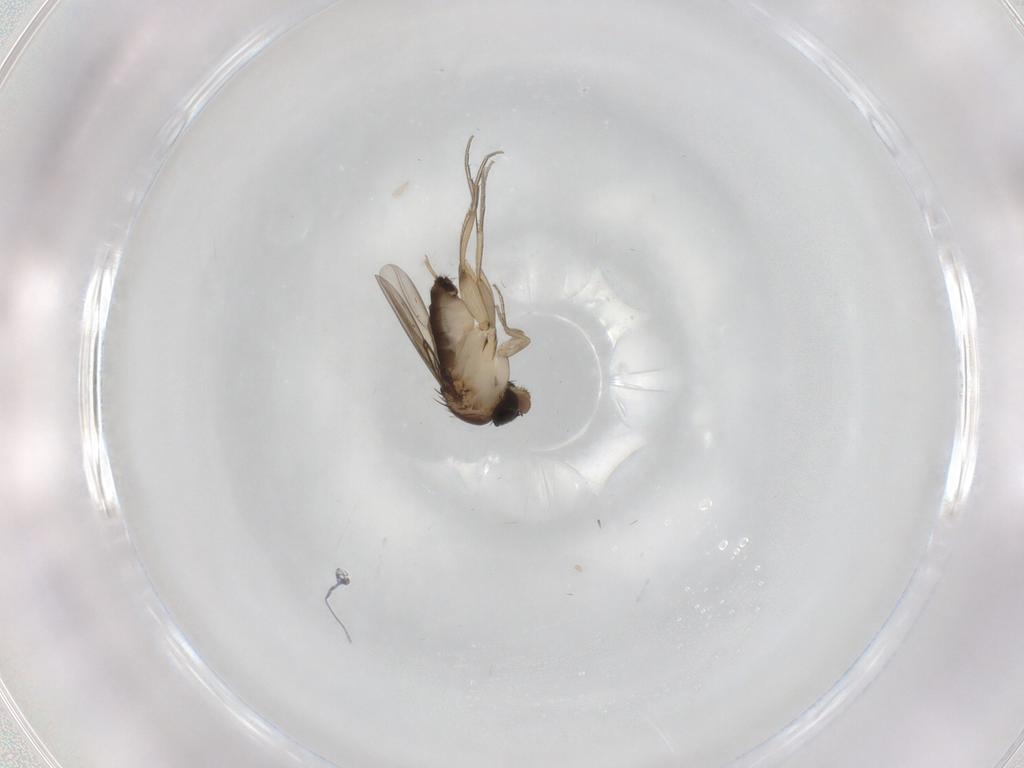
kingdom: Animalia
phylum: Arthropoda
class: Insecta
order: Diptera
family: Phoridae
